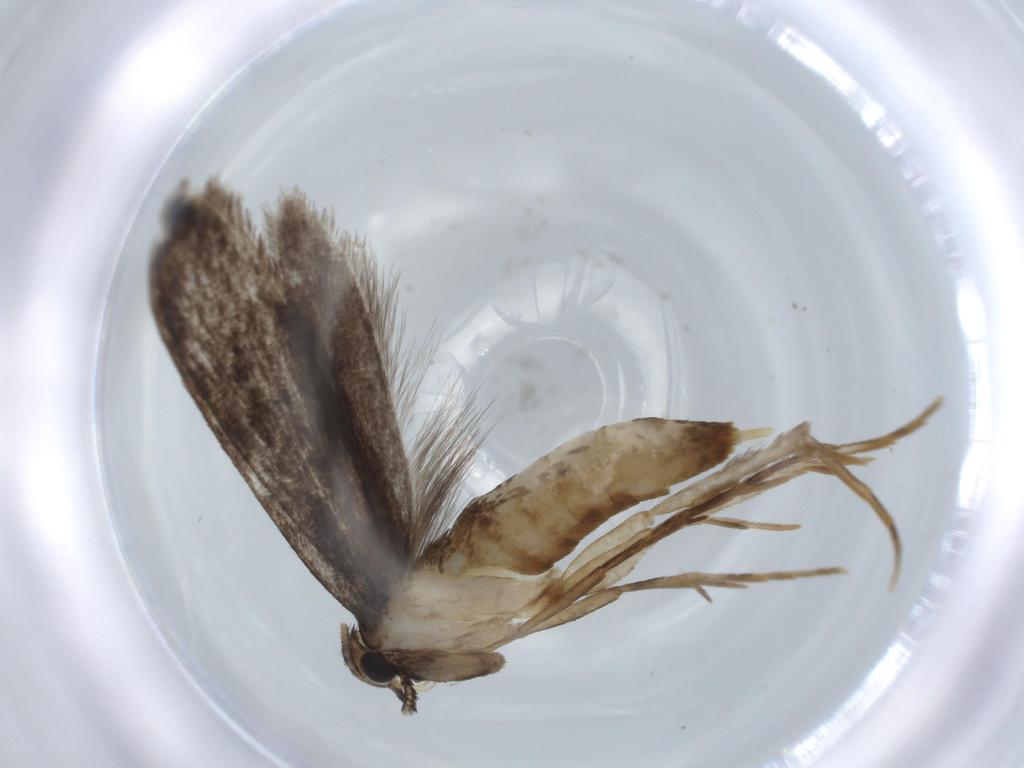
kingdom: Animalia
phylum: Arthropoda
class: Insecta
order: Lepidoptera
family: Tineidae
